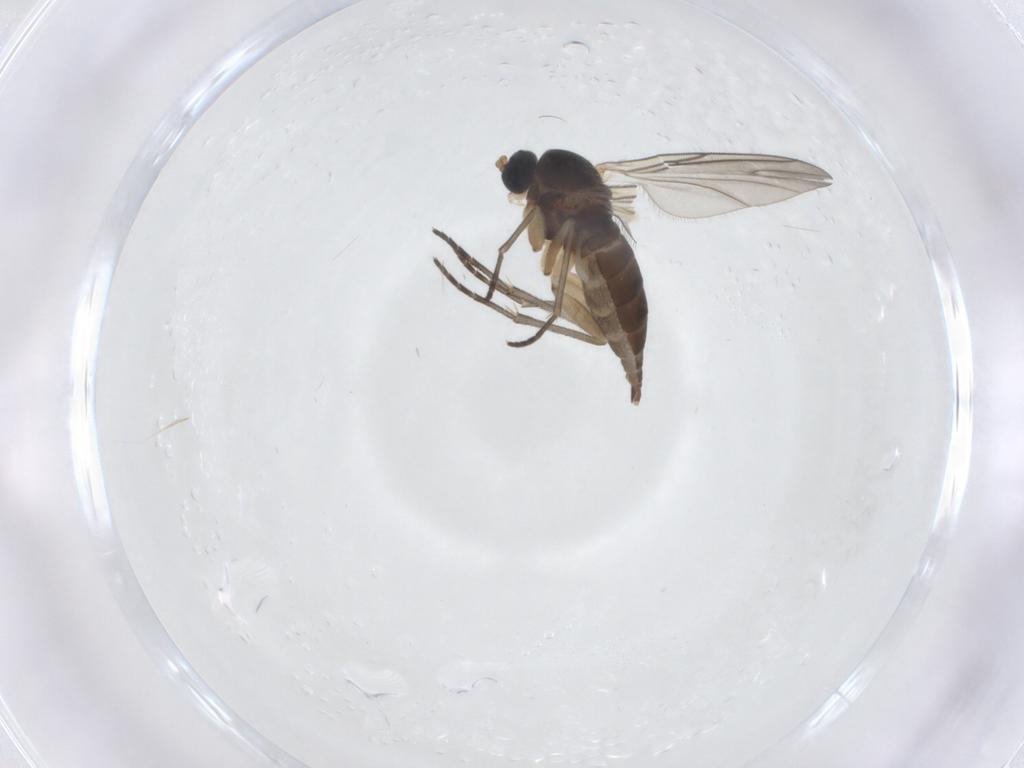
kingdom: Animalia
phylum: Arthropoda
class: Insecta
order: Diptera
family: Sciaridae
